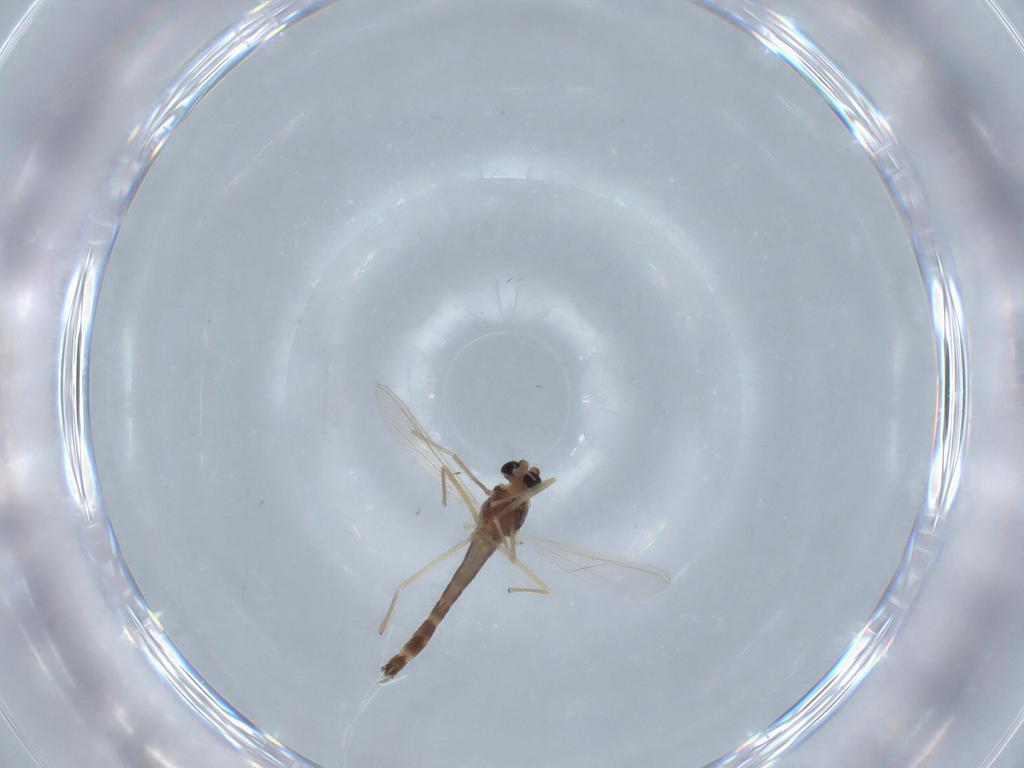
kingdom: Animalia
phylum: Arthropoda
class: Insecta
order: Diptera
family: Chironomidae
